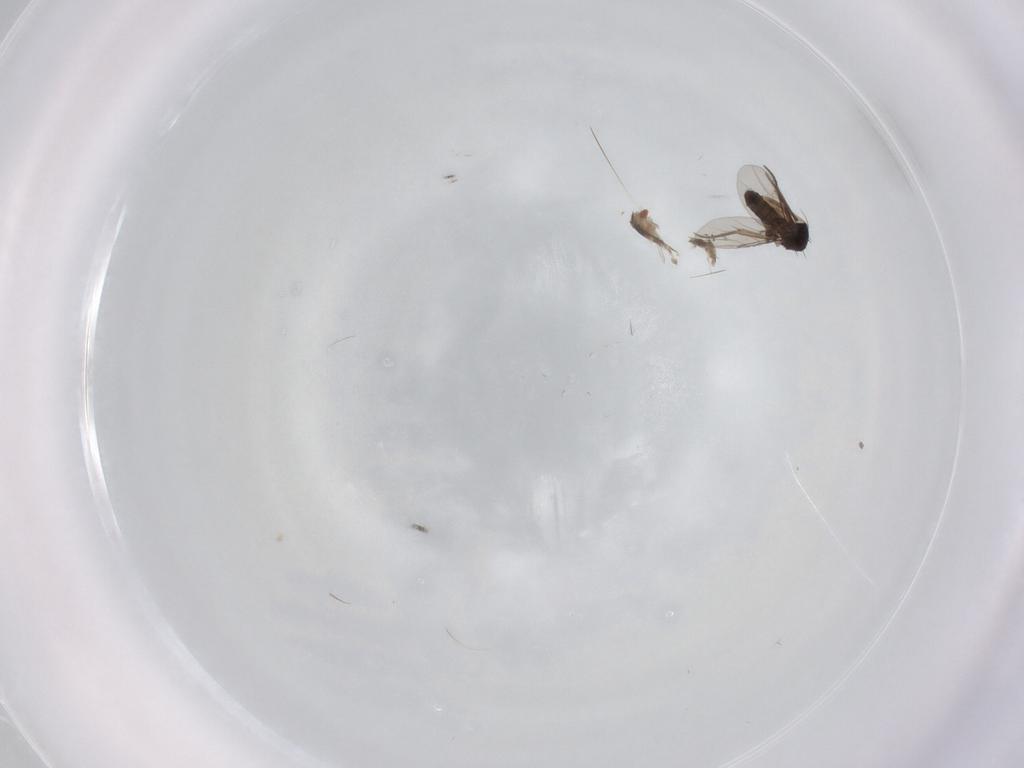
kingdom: Animalia
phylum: Arthropoda
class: Insecta
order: Diptera
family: Phoridae
